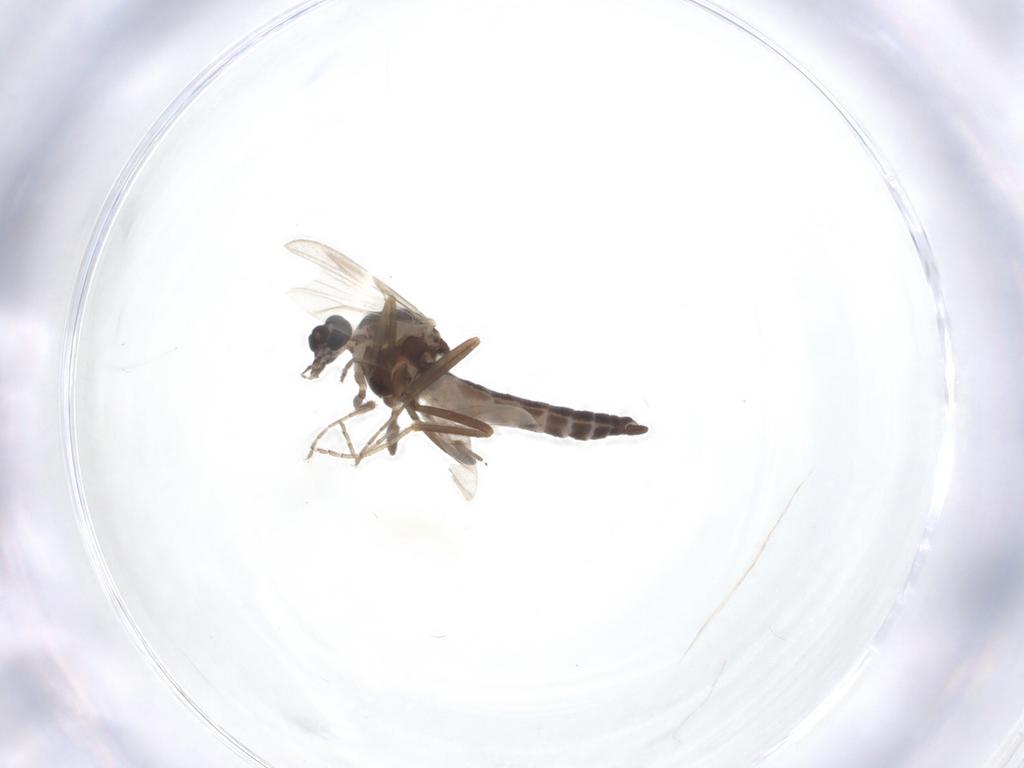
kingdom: Animalia
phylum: Arthropoda
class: Insecta
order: Diptera
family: Ceratopogonidae
